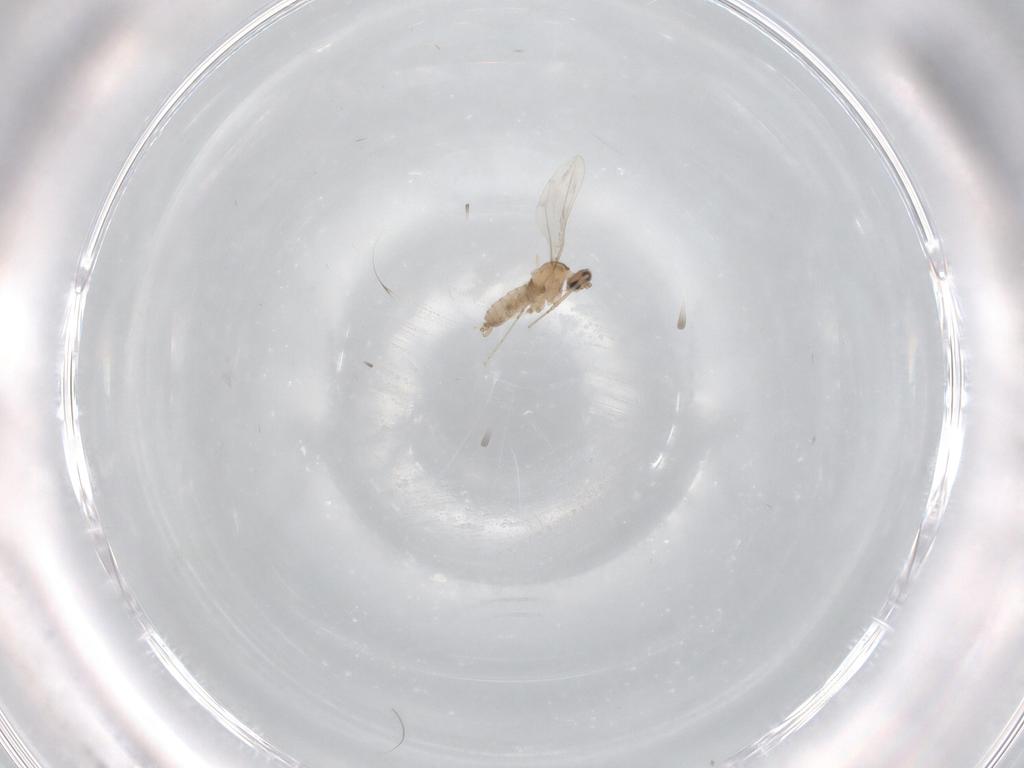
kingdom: Animalia
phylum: Arthropoda
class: Insecta
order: Diptera
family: Cecidomyiidae
